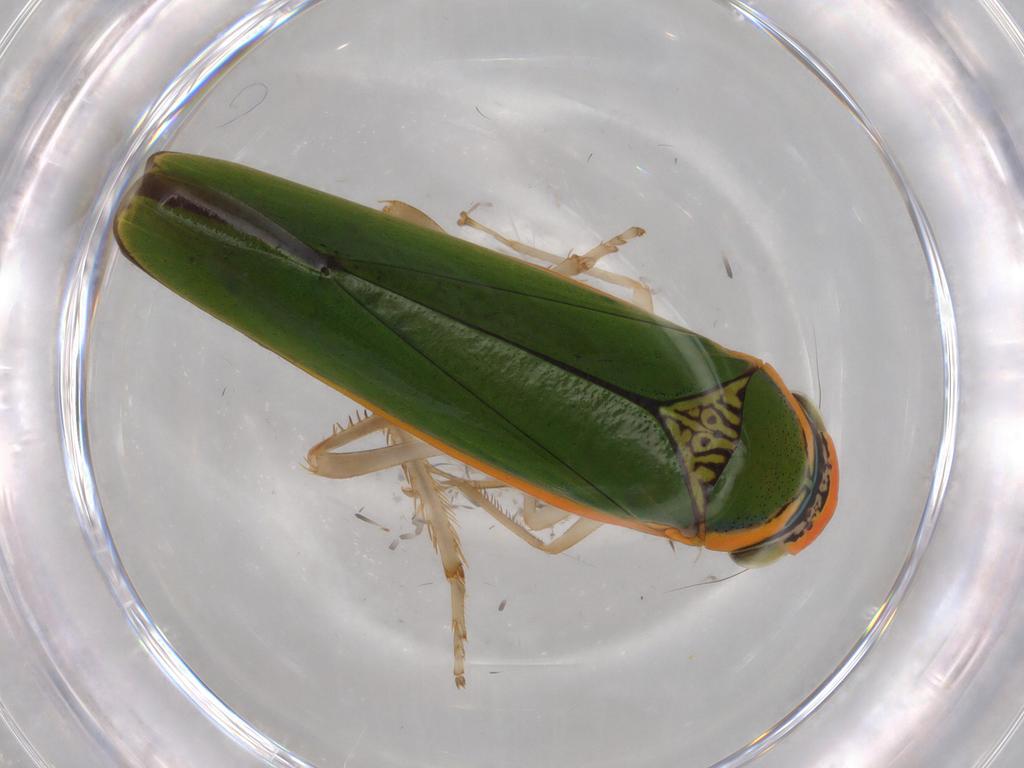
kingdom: Animalia
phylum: Arthropoda
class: Insecta
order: Hemiptera
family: Cicadellidae
